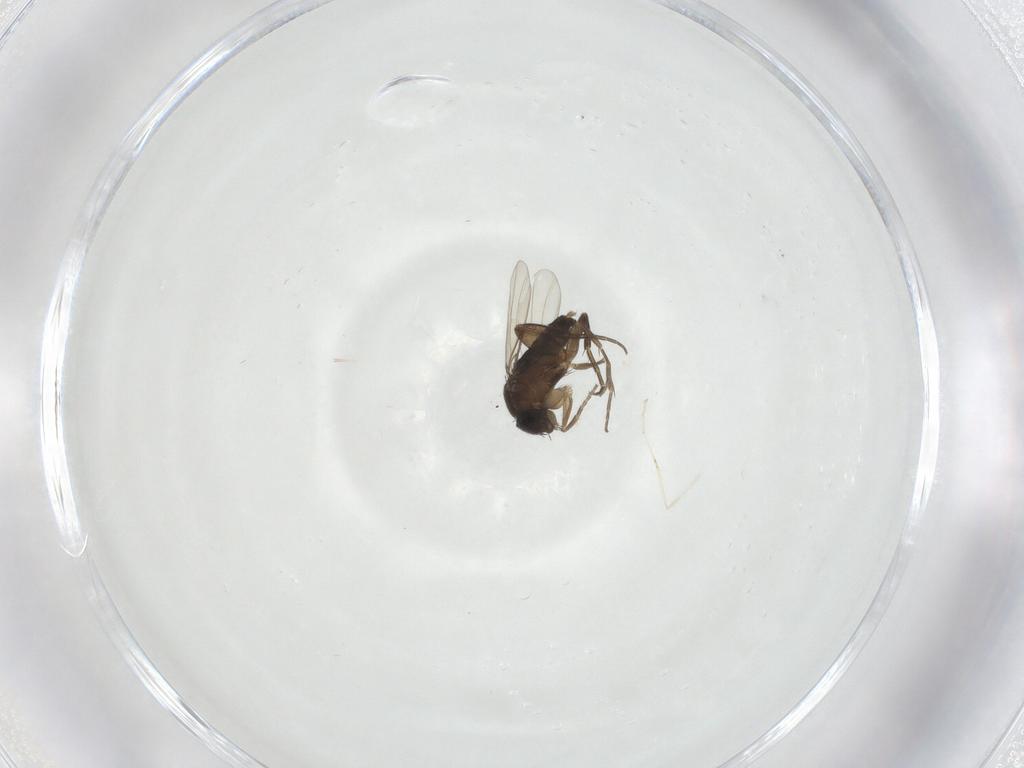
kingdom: Animalia
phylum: Arthropoda
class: Insecta
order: Diptera
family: Phoridae
